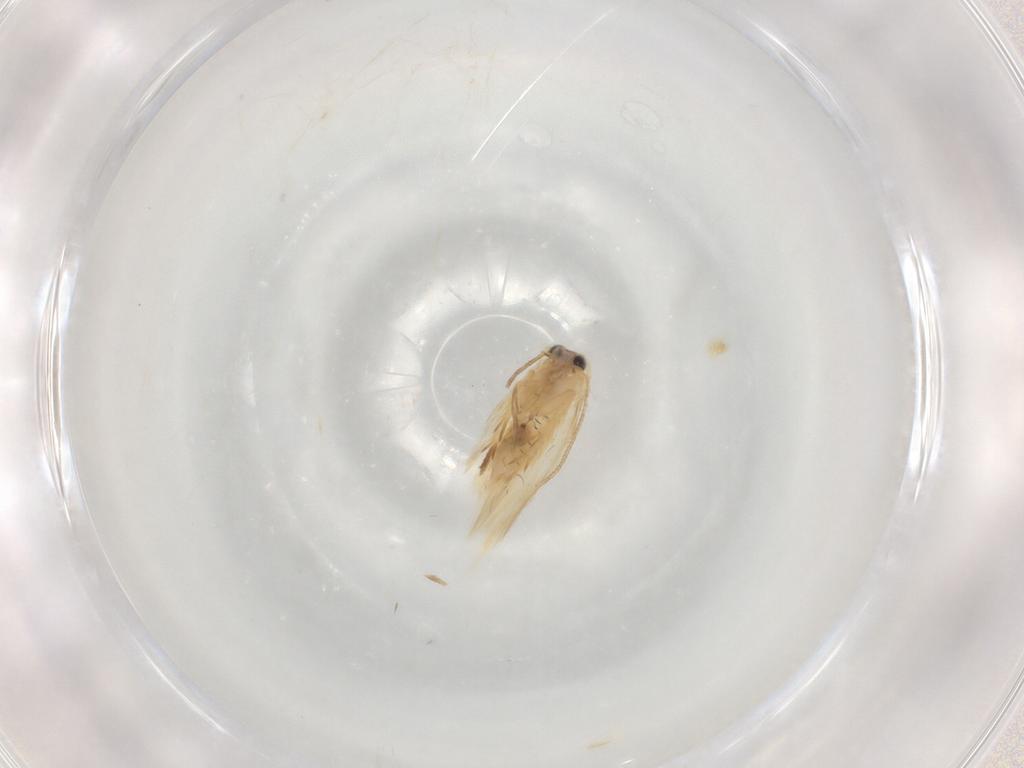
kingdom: Animalia
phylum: Arthropoda
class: Insecta
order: Lepidoptera
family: Nepticulidae
